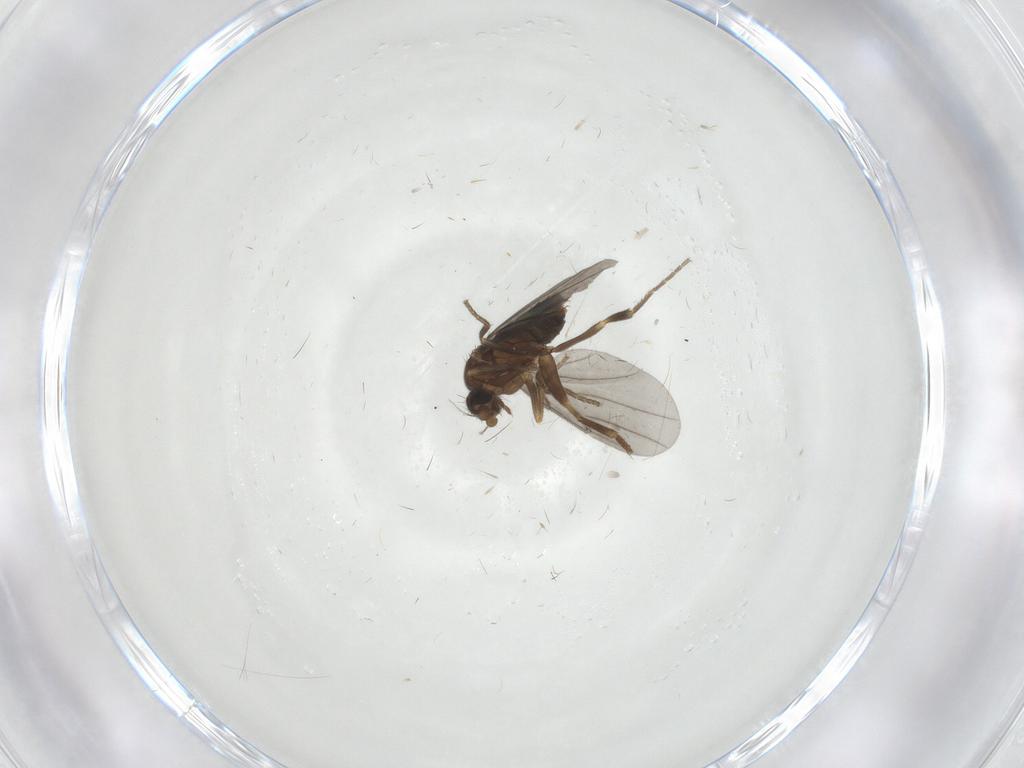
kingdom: Animalia
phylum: Arthropoda
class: Insecta
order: Diptera
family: Phoridae
